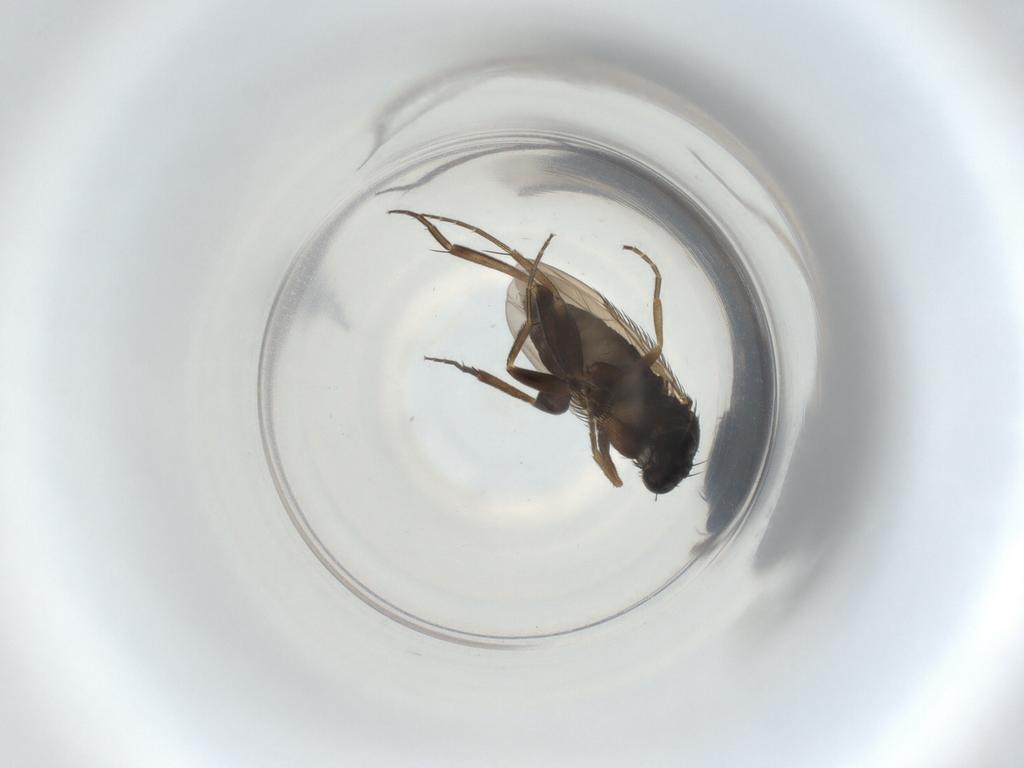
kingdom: Animalia
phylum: Arthropoda
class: Insecta
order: Diptera
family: Phoridae
